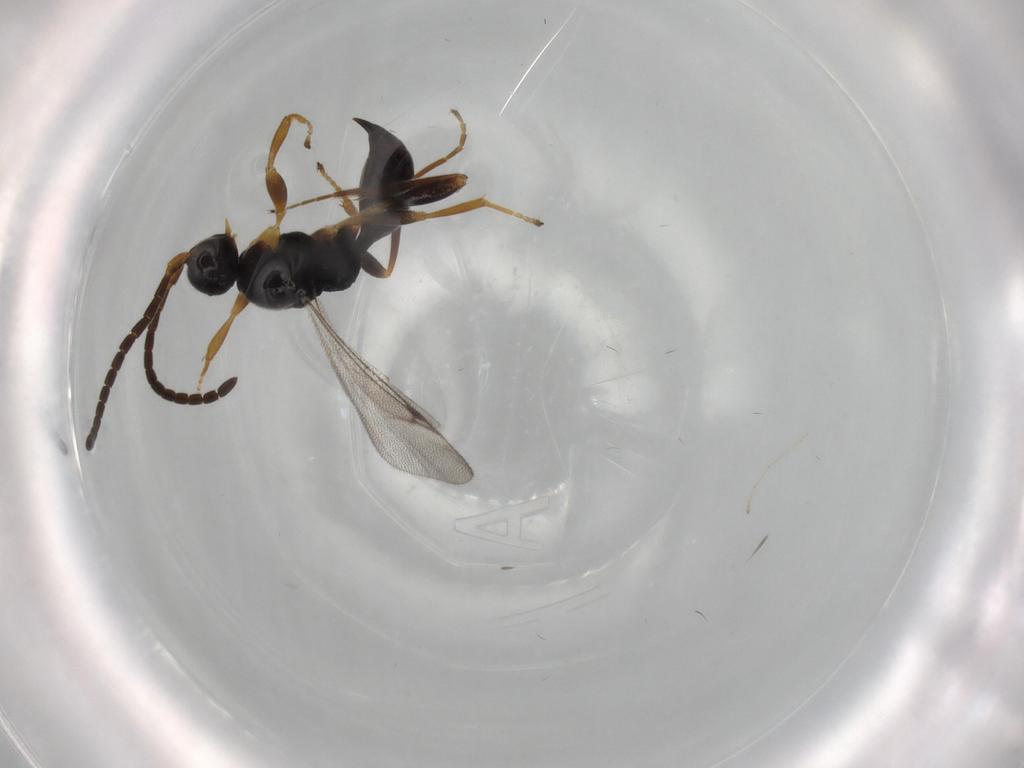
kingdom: Animalia
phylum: Arthropoda
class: Insecta
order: Hymenoptera
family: Proctotrupidae
